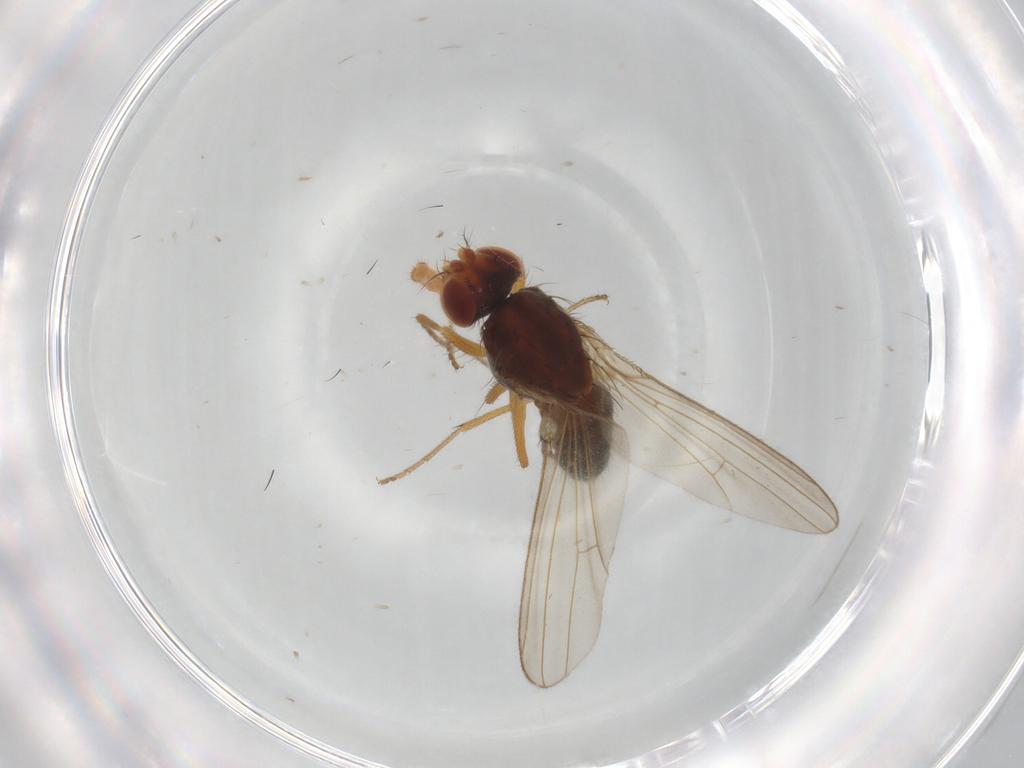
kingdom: Animalia
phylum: Arthropoda
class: Insecta
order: Diptera
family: Drosophilidae
